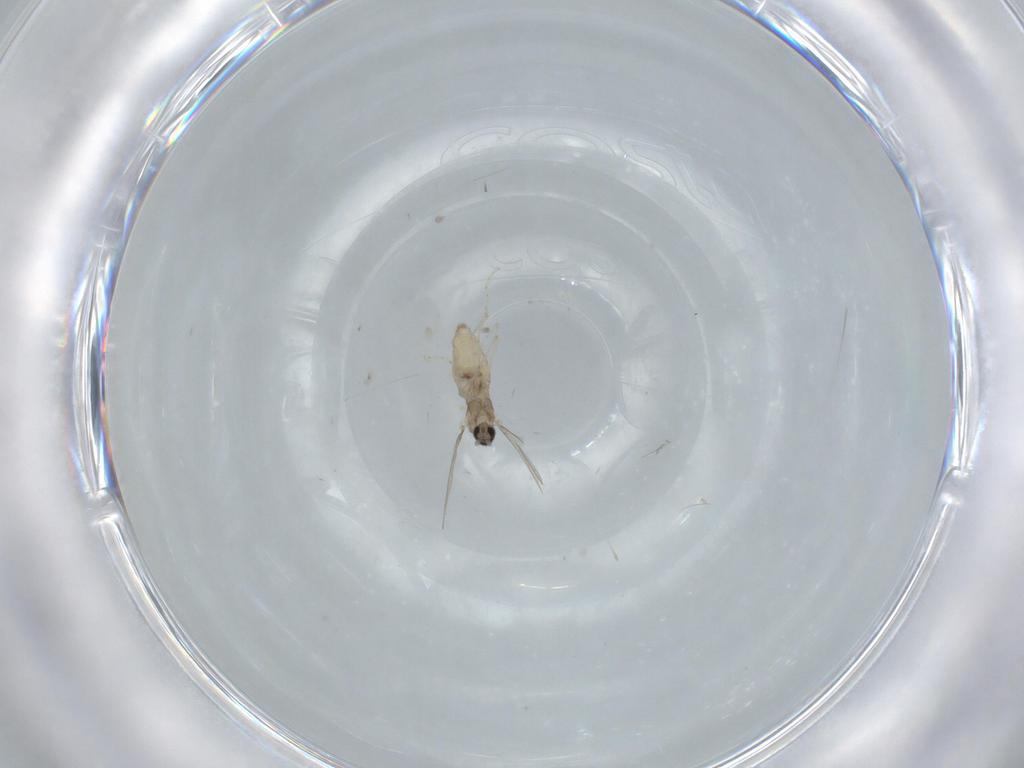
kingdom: Animalia
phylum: Arthropoda
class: Insecta
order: Diptera
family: Cecidomyiidae
